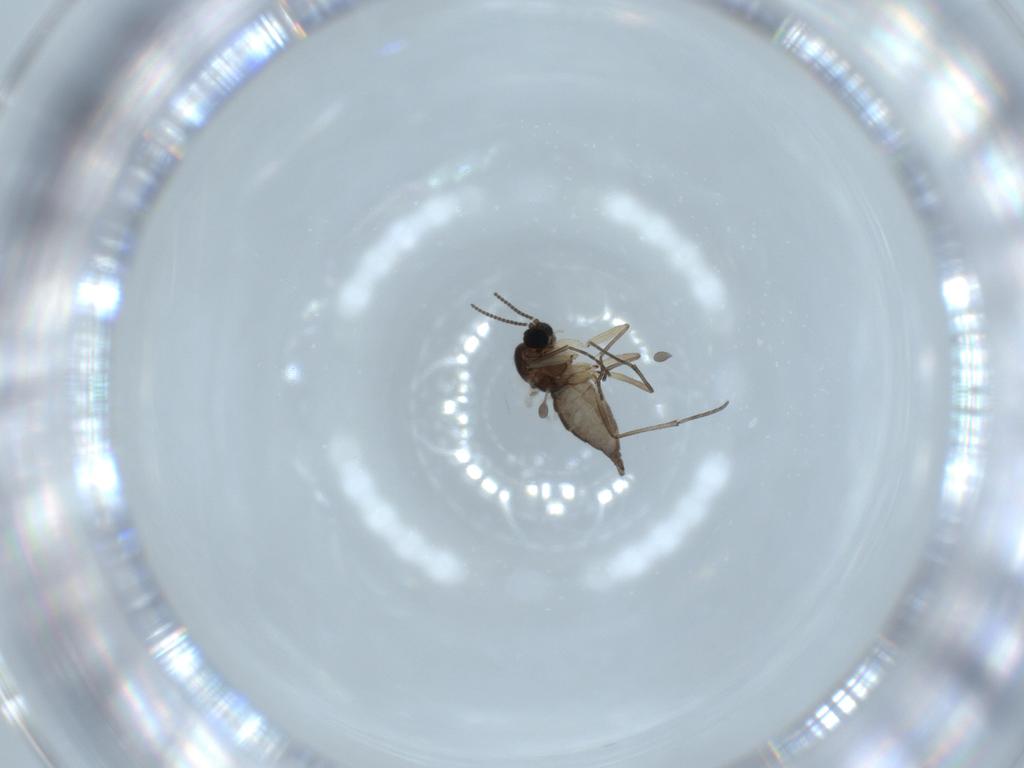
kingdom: Animalia
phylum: Arthropoda
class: Insecta
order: Diptera
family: Sciaridae
